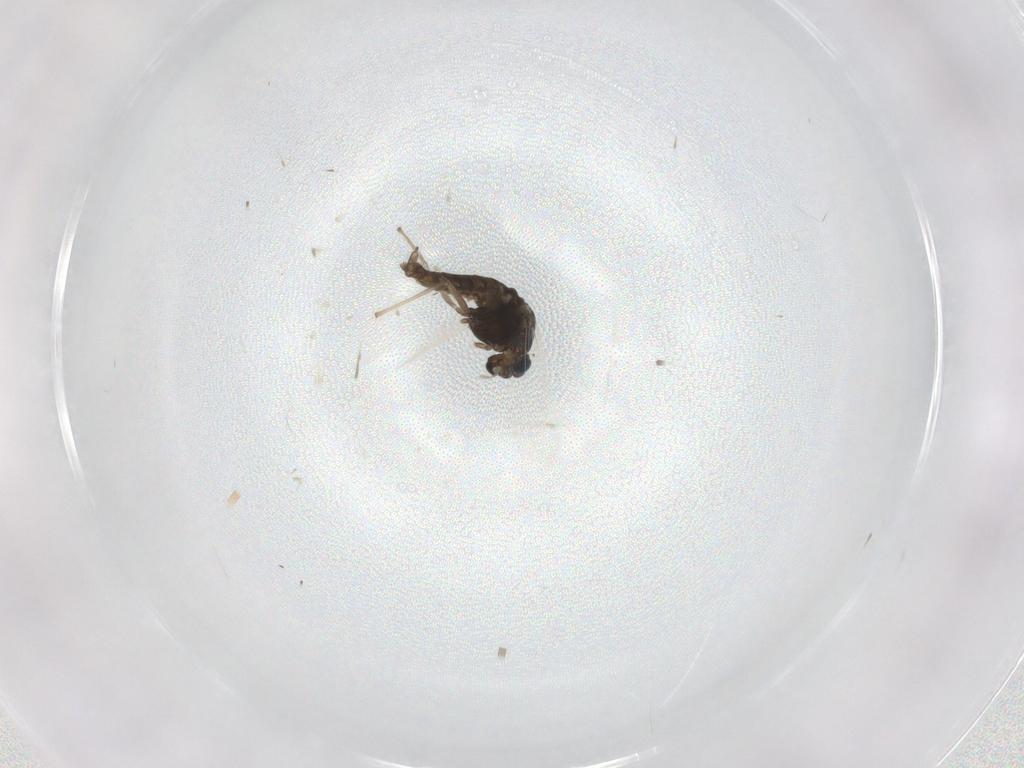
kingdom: Animalia
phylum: Arthropoda
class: Insecta
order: Diptera
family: Chironomidae
